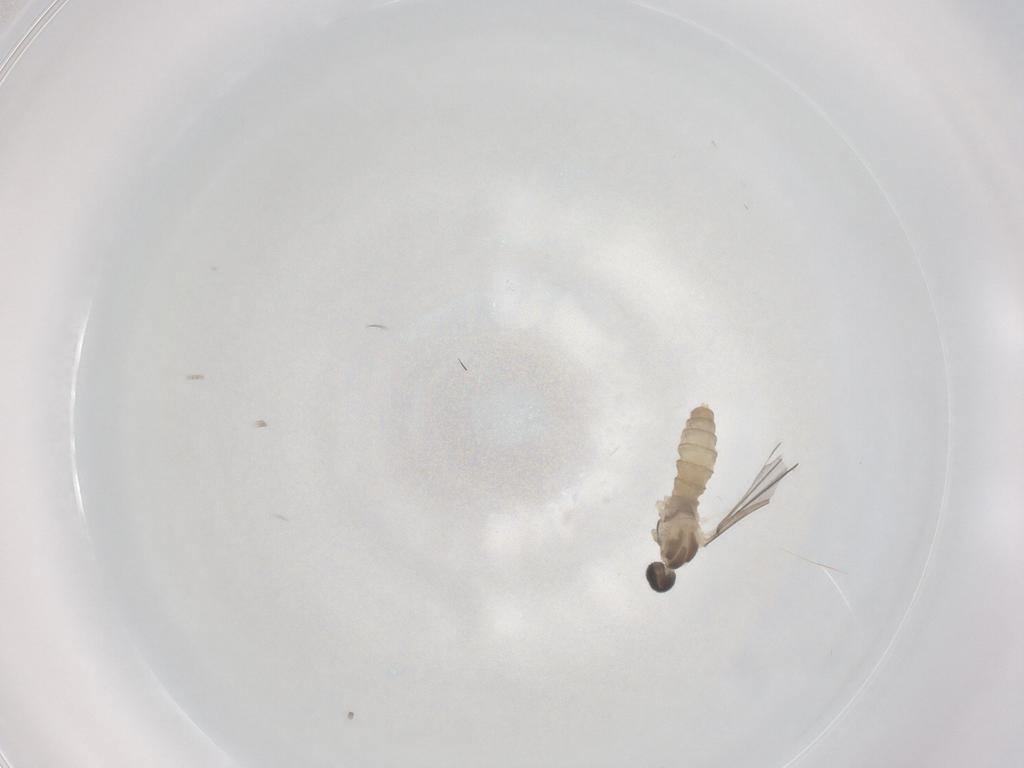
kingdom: Animalia
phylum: Arthropoda
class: Insecta
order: Diptera
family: Cecidomyiidae
